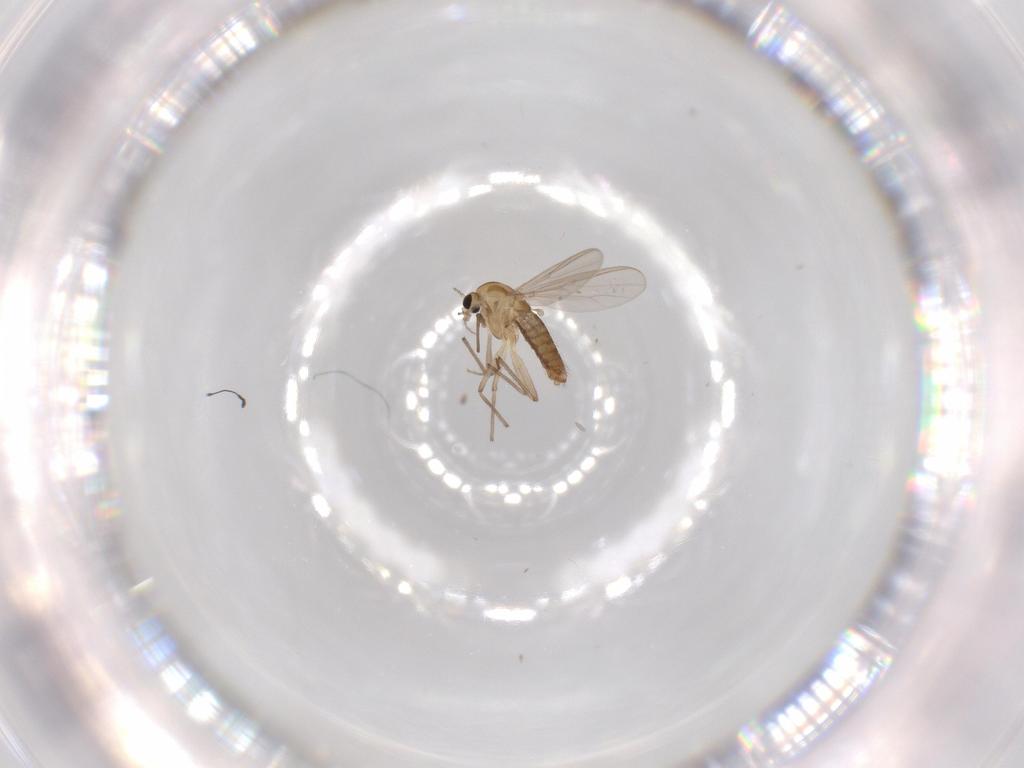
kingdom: Animalia
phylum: Arthropoda
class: Insecta
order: Diptera
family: Chironomidae
